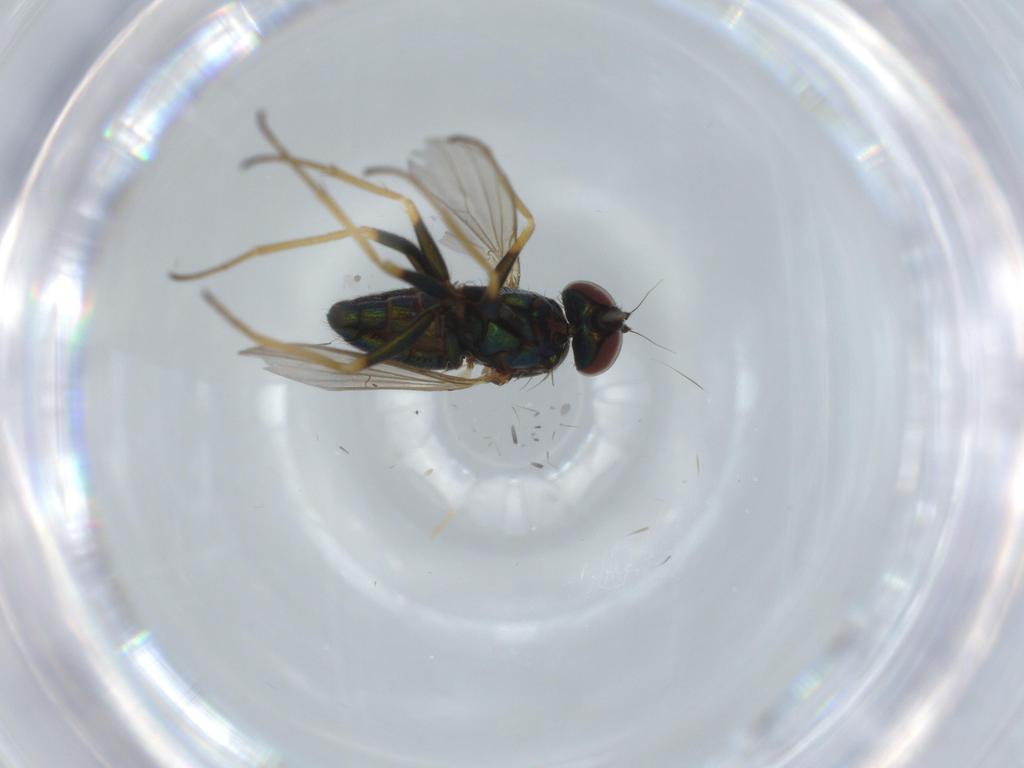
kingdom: Animalia
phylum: Arthropoda
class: Insecta
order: Diptera
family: Dolichopodidae
